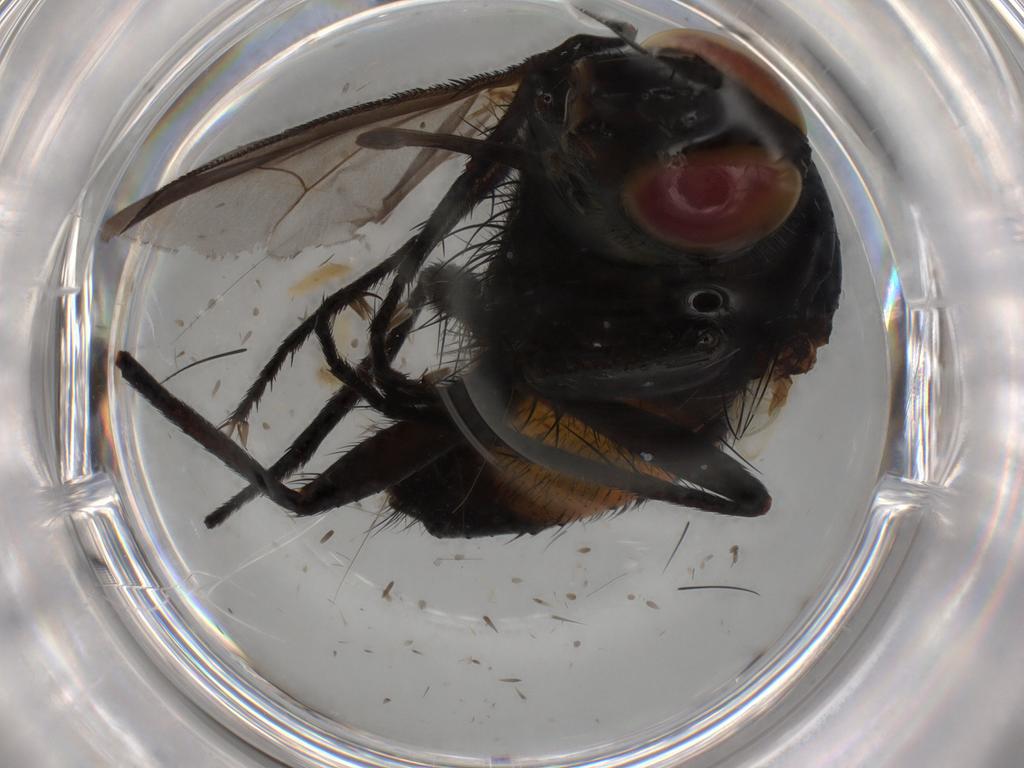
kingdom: Animalia
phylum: Arthropoda
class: Insecta
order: Diptera
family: Tachinidae
